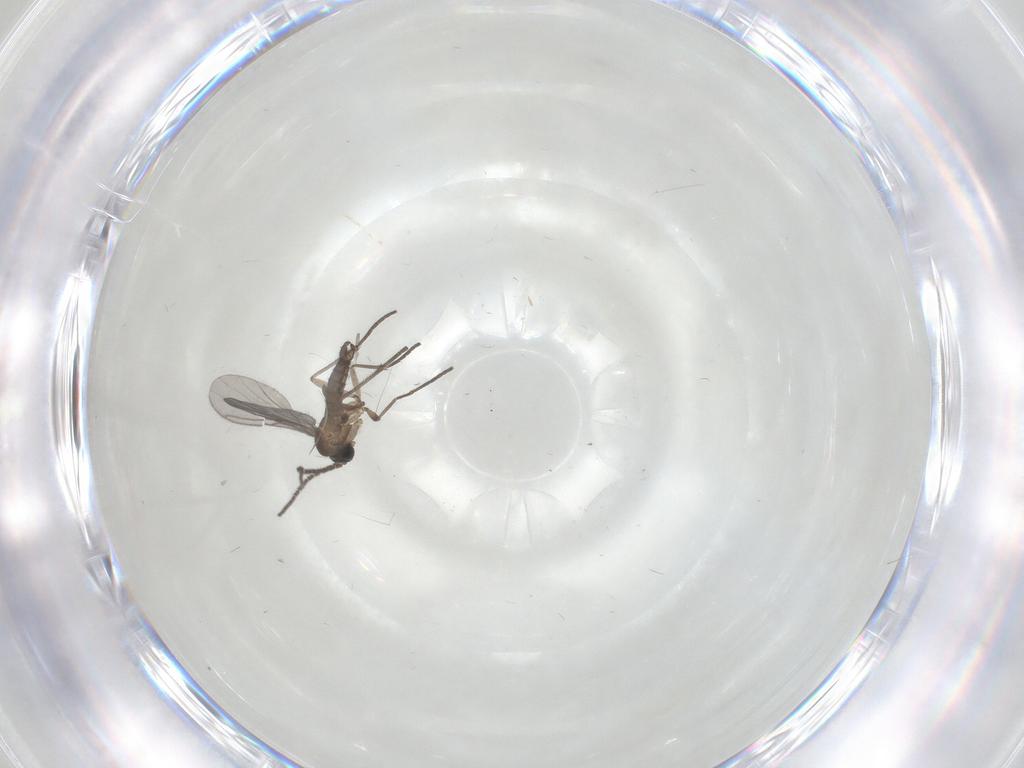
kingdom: Animalia
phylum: Arthropoda
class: Insecta
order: Diptera
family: Sciaridae
